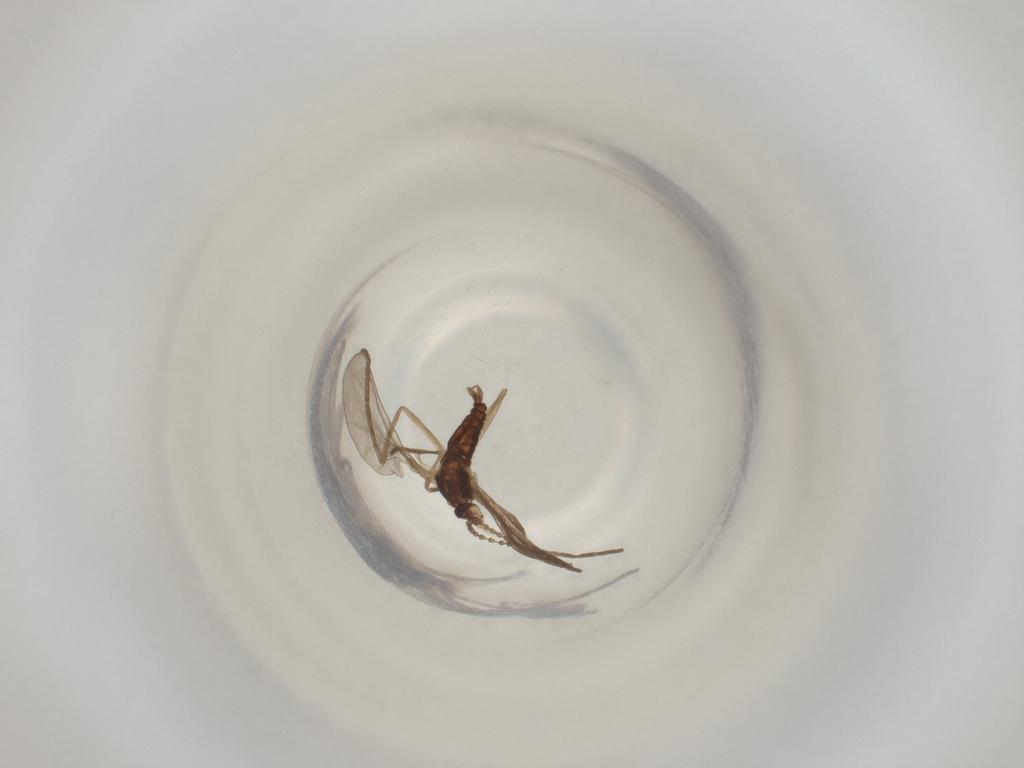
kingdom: Animalia
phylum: Arthropoda
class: Insecta
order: Diptera
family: Cecidomyiidae
